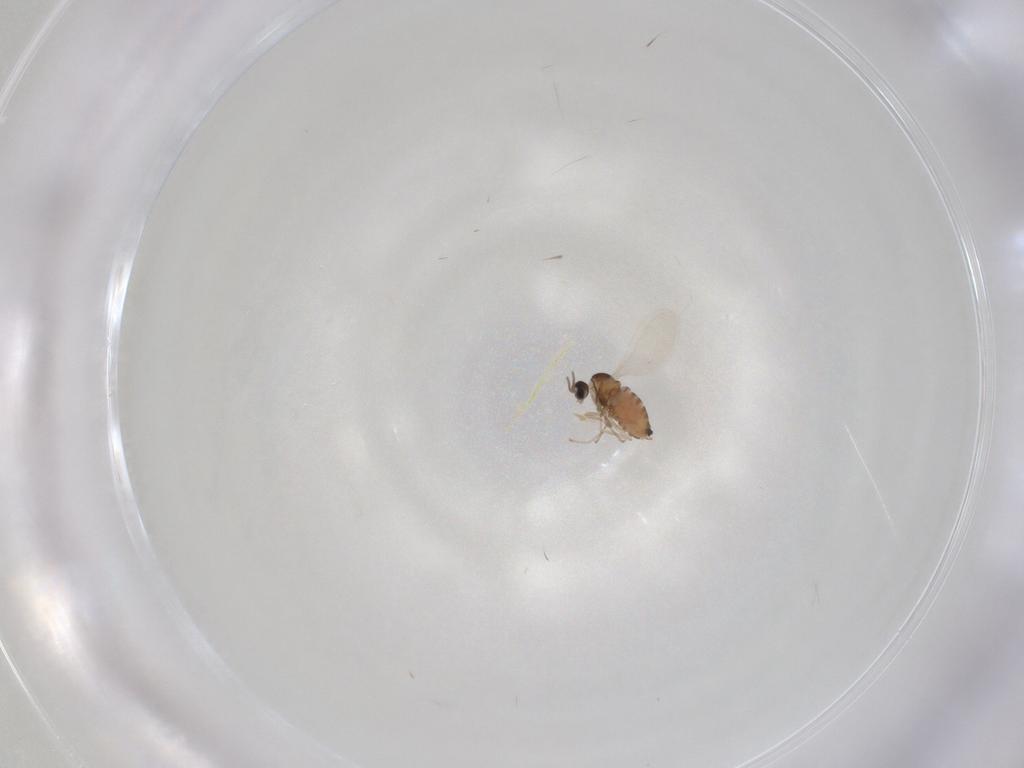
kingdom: Animalia
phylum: Arthropoda
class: Insecta
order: Diptera
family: Cecidomyiidae
